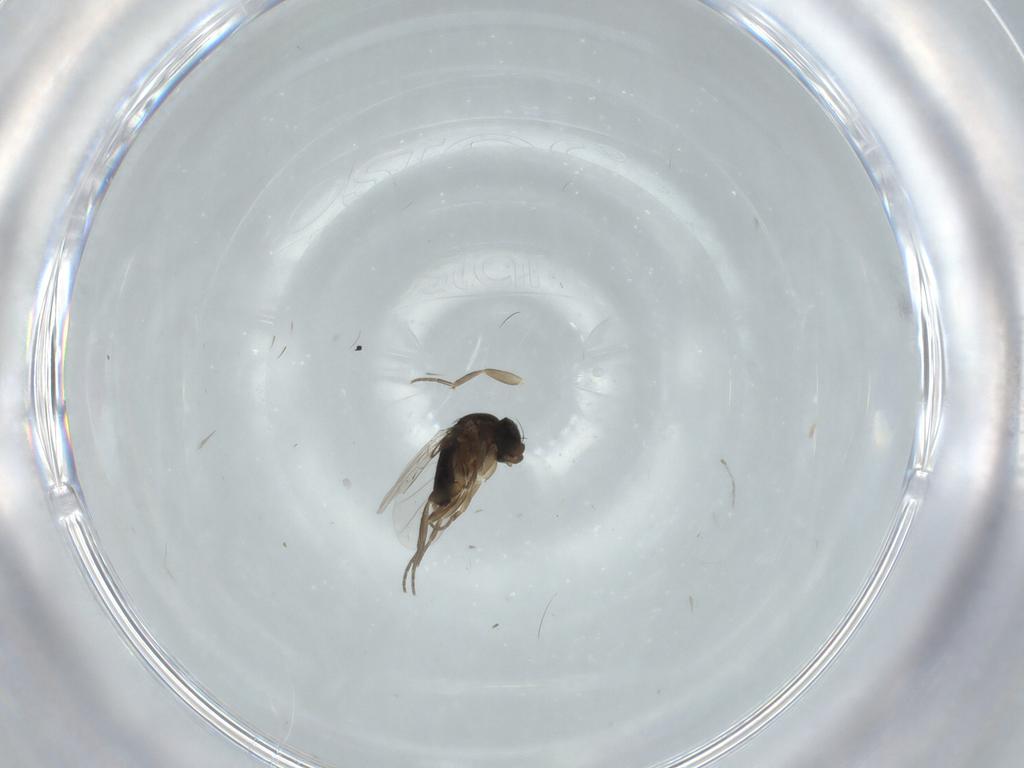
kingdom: Animalia
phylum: Arthropoda
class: Insecta
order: Diptera
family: Phoridae
